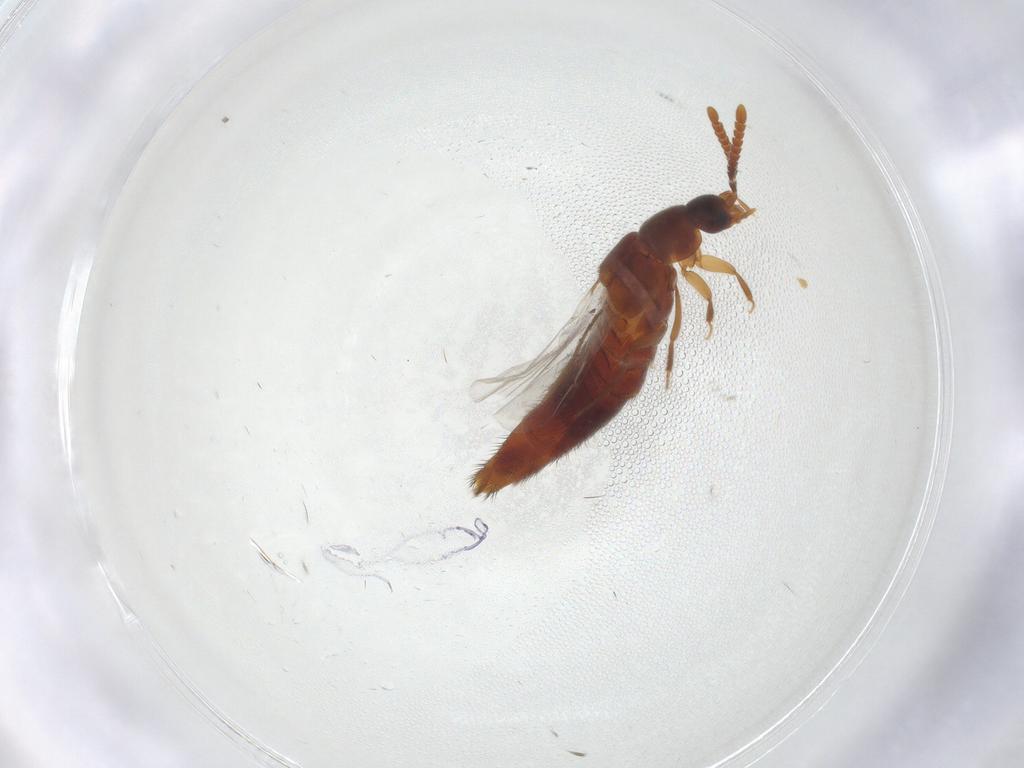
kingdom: Animalia
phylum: Arthropoda
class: Insecta
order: Coleoptera
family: Staphylinidae
